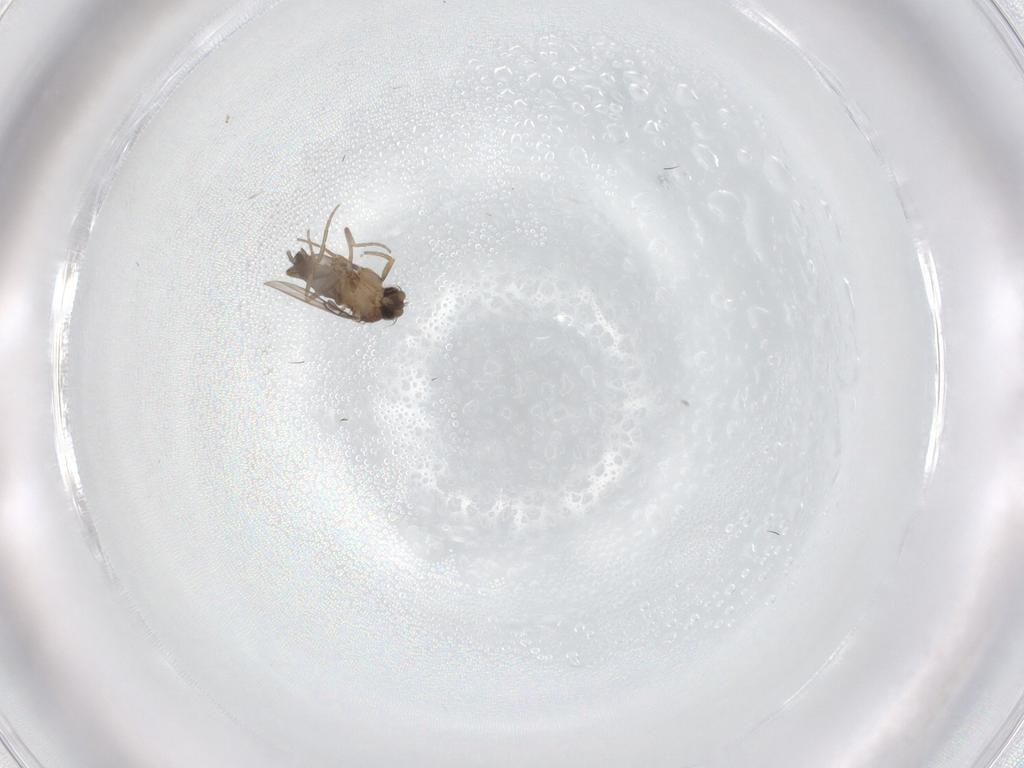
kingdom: Animalia
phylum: Arthropoda
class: Insecta
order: Diptera
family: Phoridae
